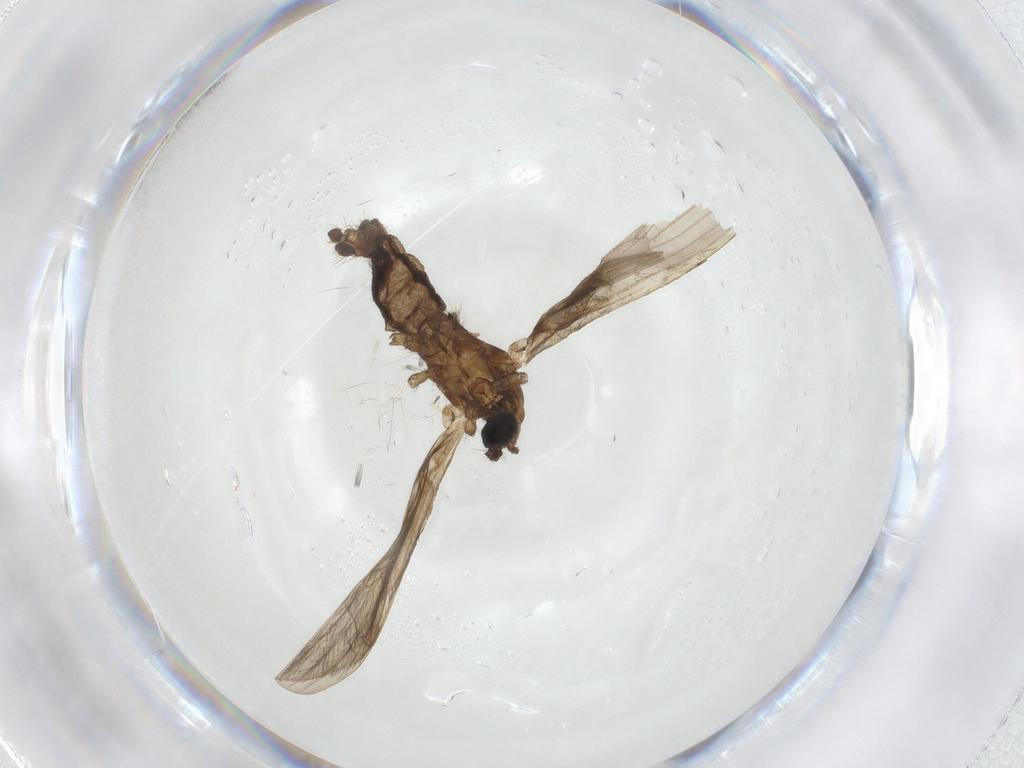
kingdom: Animalia
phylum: Arthropoda
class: Insecta
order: Diptera
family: Limoniidae
